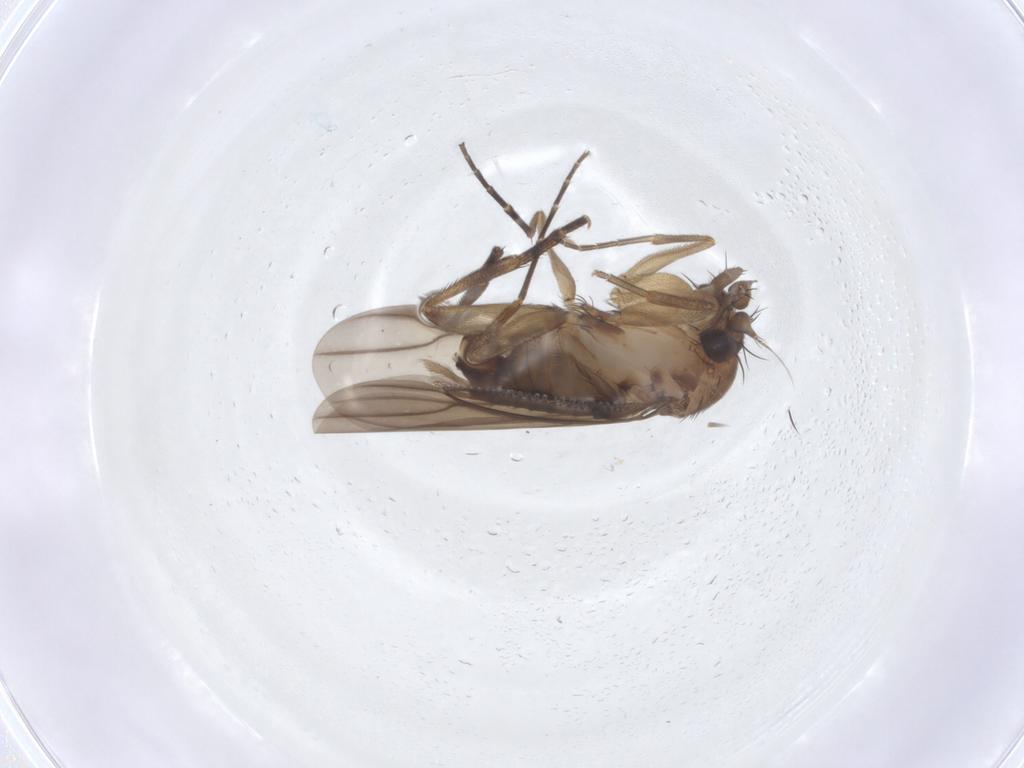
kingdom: Animalia
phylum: Arthropoda
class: Insecta
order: Diptera
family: Phoridae
